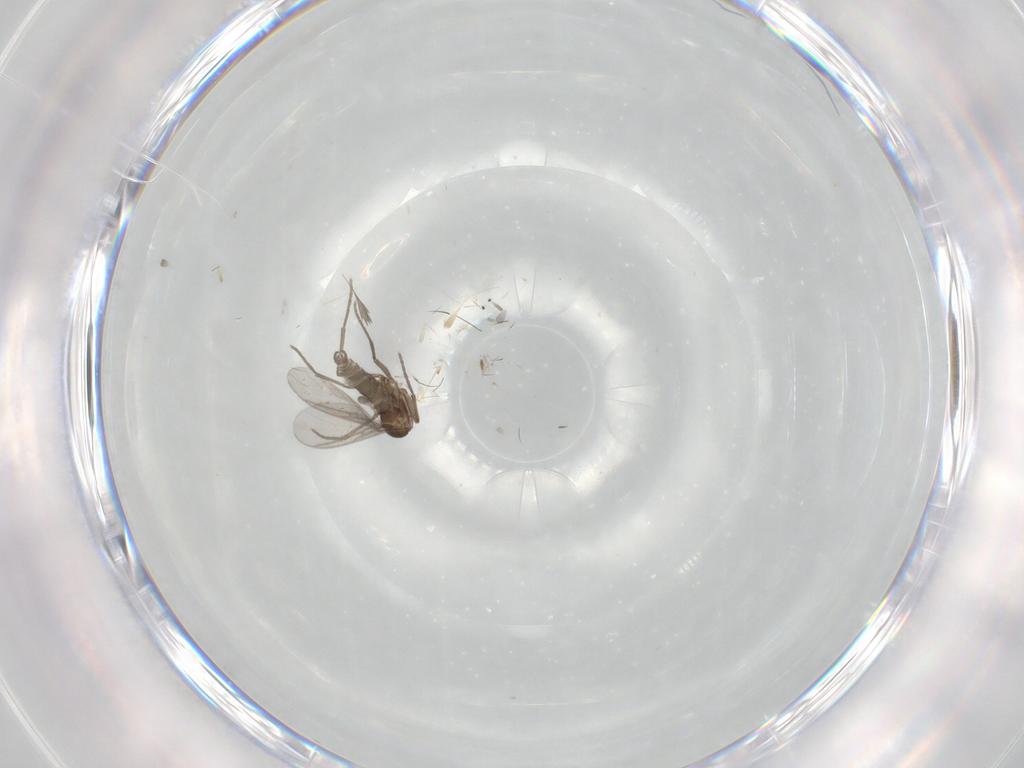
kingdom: Animalia
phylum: Arthropoda
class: Insecta
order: Diptera
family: Sciaridae
